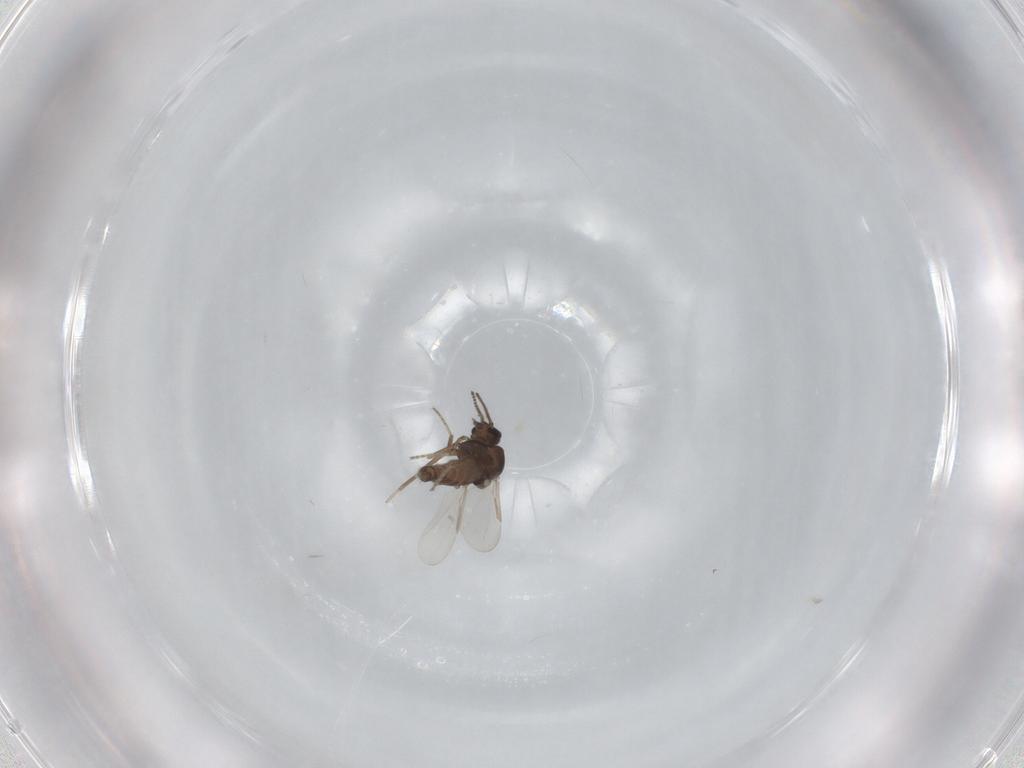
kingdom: Animalia
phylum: Arthropoda
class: Insecta
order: Diptera
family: Ceratopogonidae
